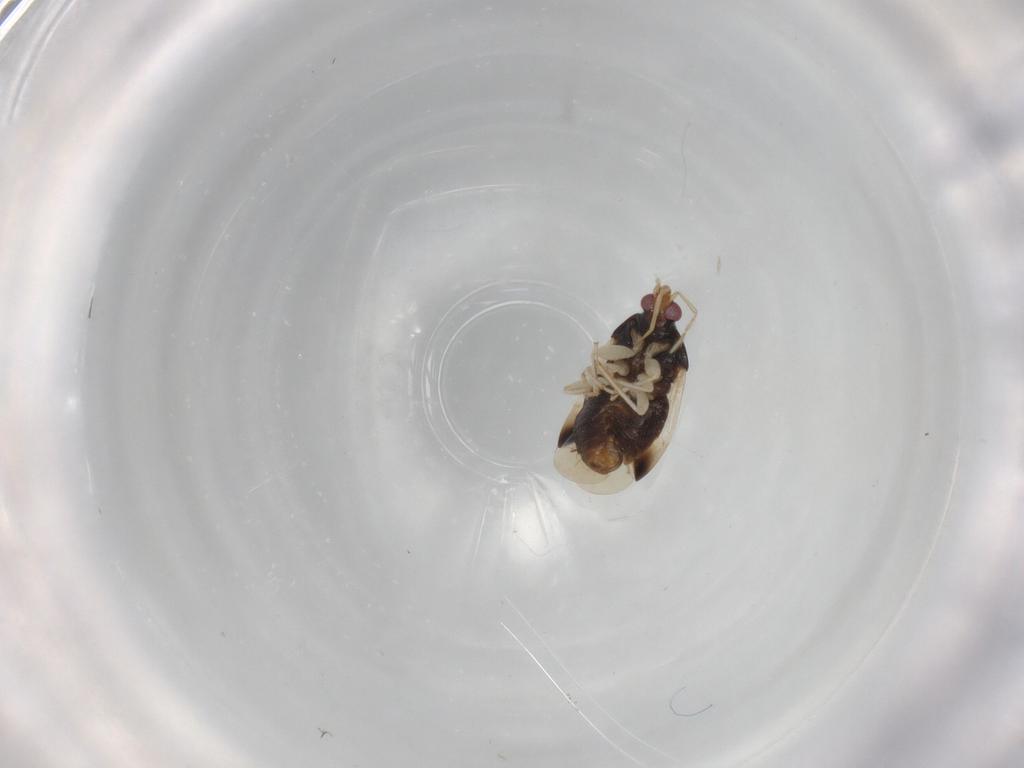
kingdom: Animalia
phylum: Arthropoda
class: Insecta
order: Hemiptera
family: Anthocoridae
